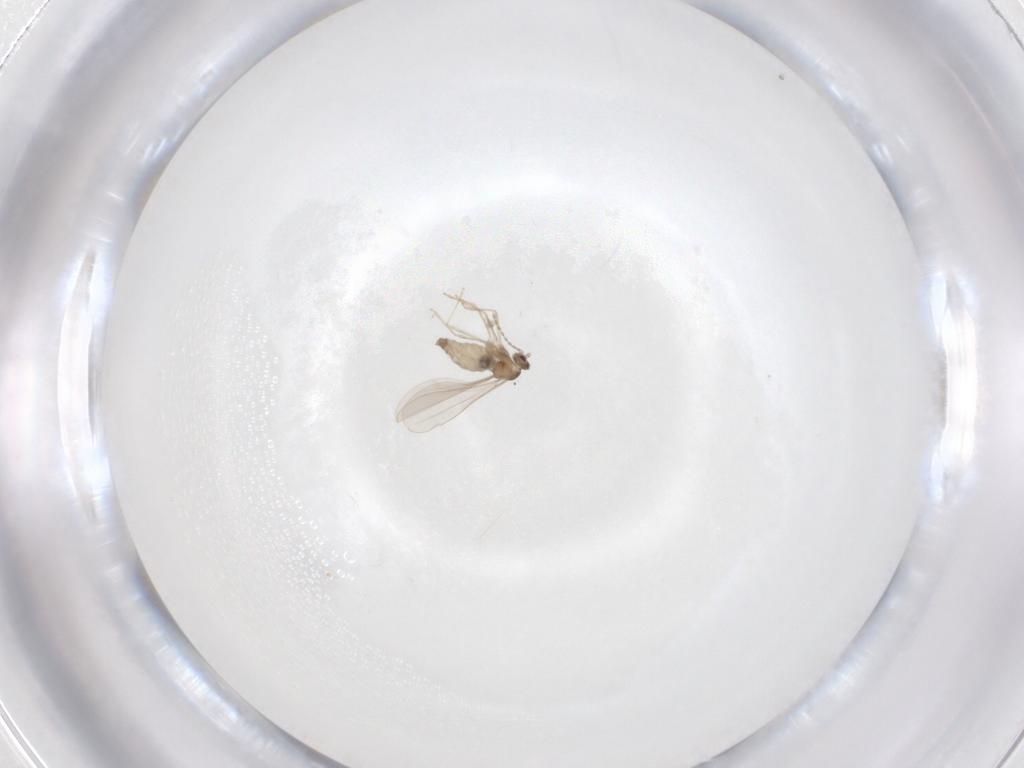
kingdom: Animalia
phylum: Arthropoda
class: Insecta
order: Diptera
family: Cecidomyiidae
